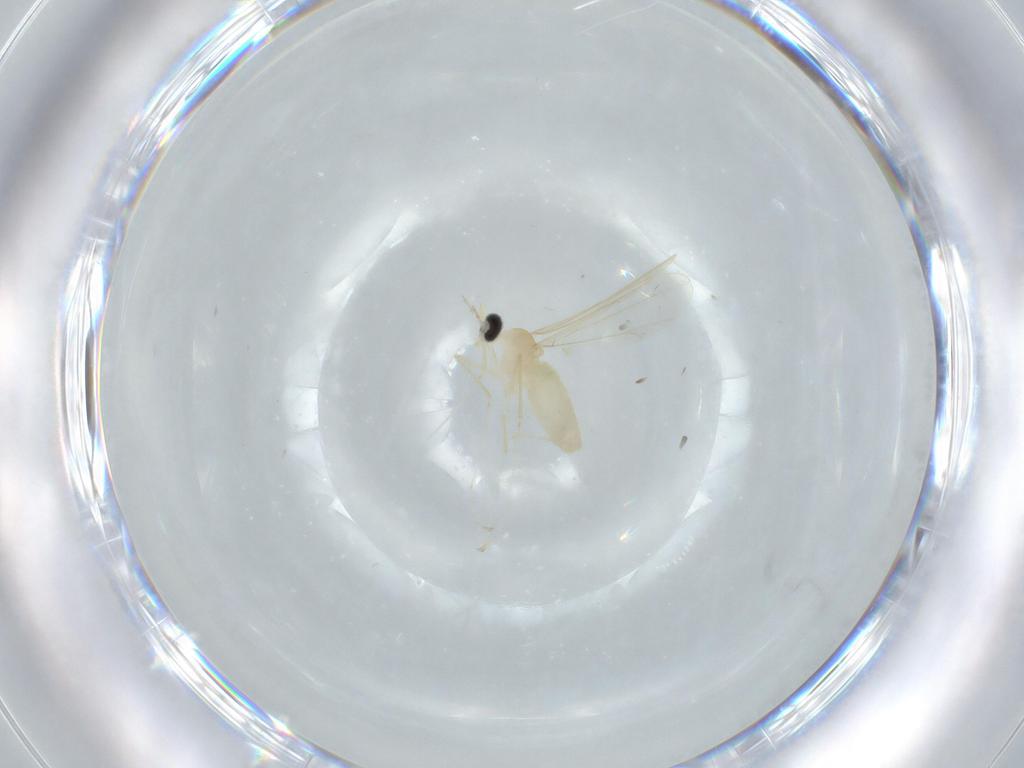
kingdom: Animalia
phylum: Arthropoda
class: Insecta
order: Diptera
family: Cecidomyiidae
